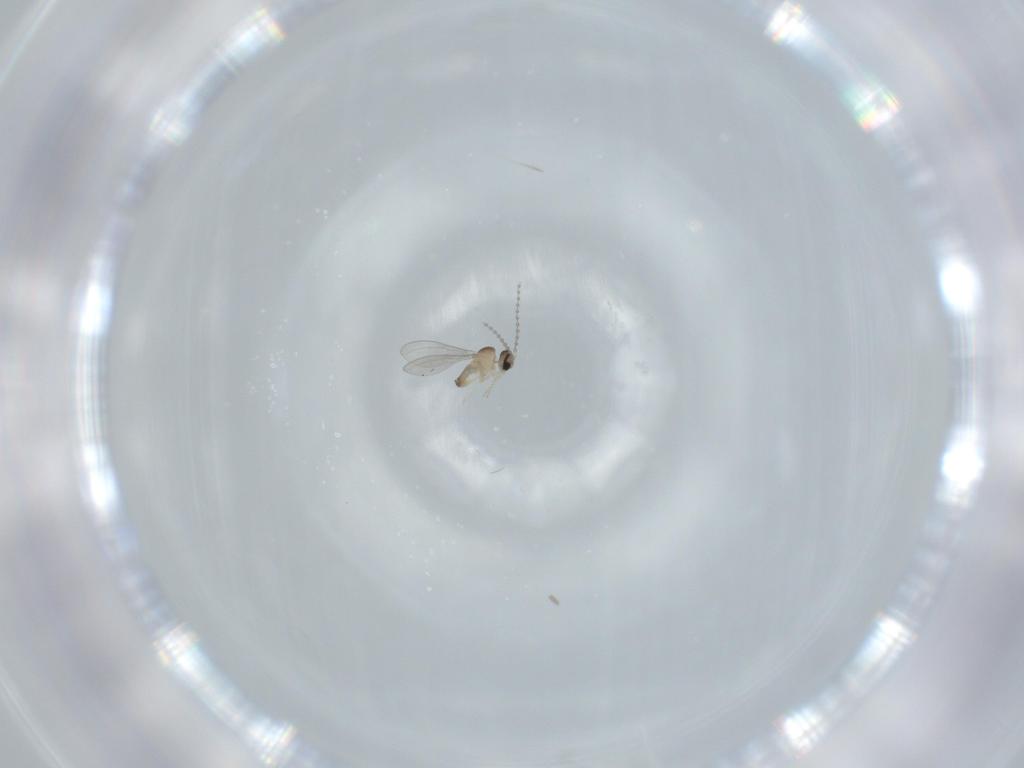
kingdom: Animalia
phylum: Arthropoda
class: Insecta
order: Diptera
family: Cecidomyiidae
